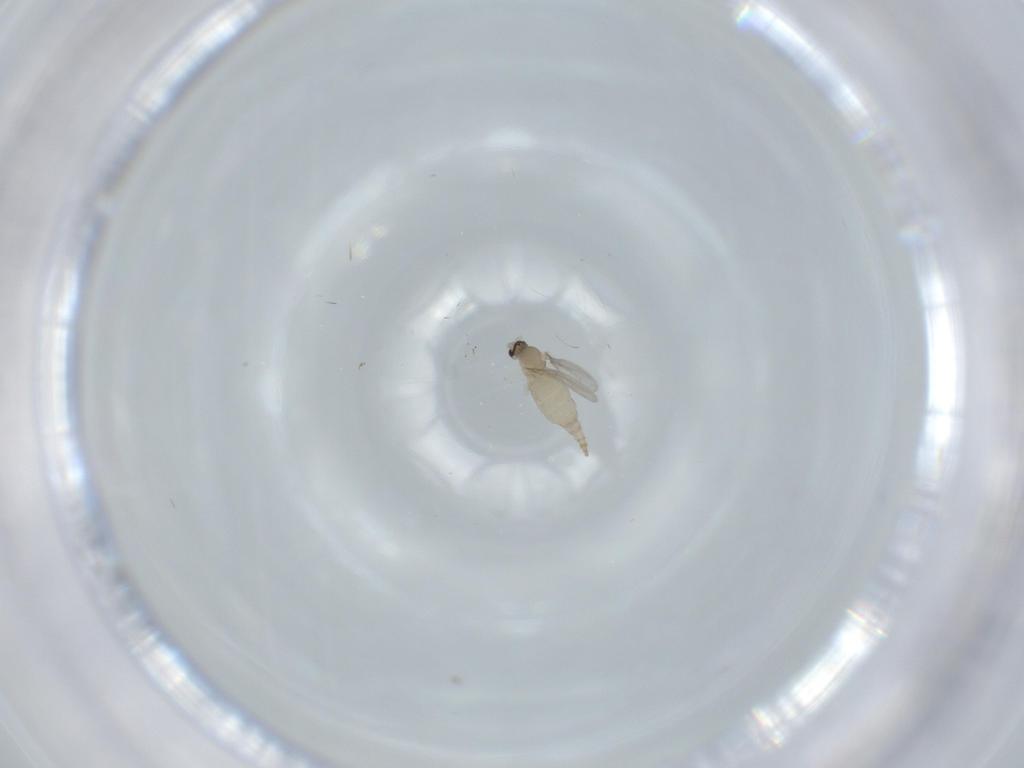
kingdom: Animalia
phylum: Arthropoda
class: Insecta
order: Diptera
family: Cecidomyiidae
